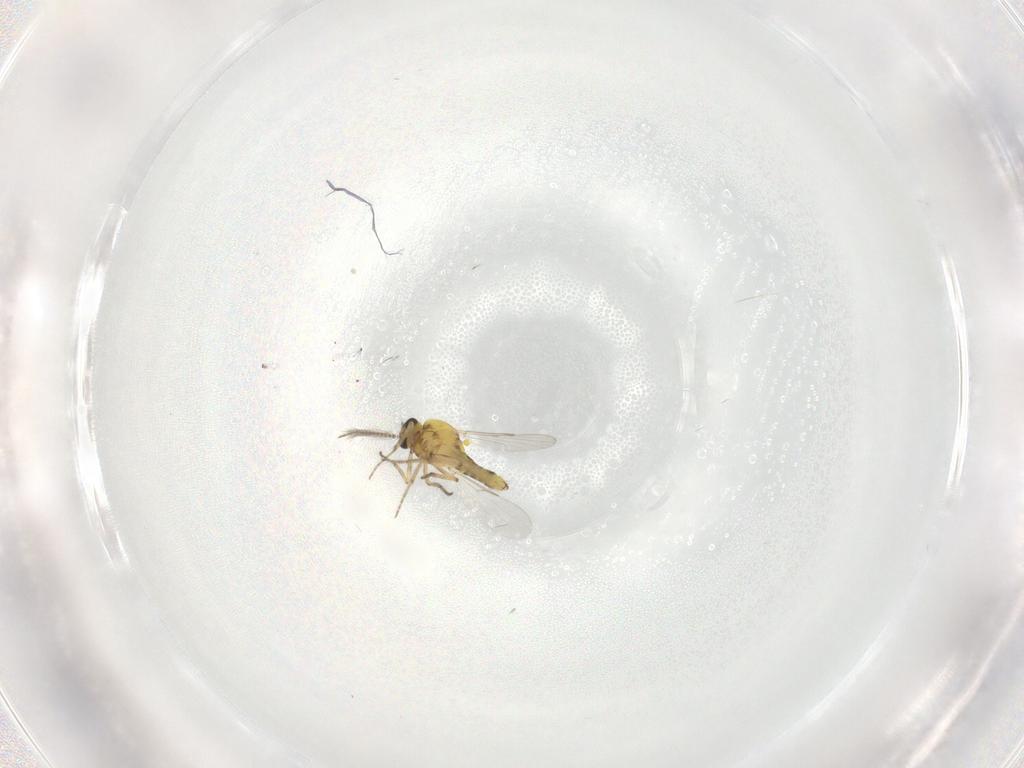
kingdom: Animalia
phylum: Arthropoda
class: Insecta
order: Diptera
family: Ceratopogonidae
